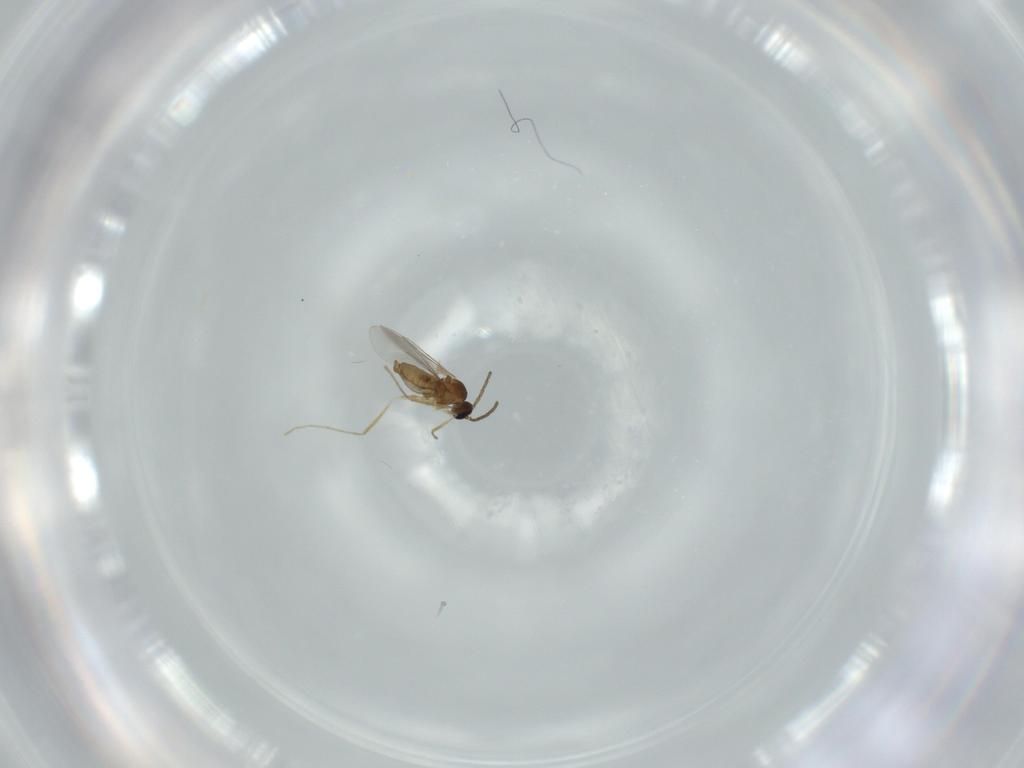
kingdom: Animalia
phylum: Arthropoda
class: Insecta
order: Diptera
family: Cecidomyiidae
